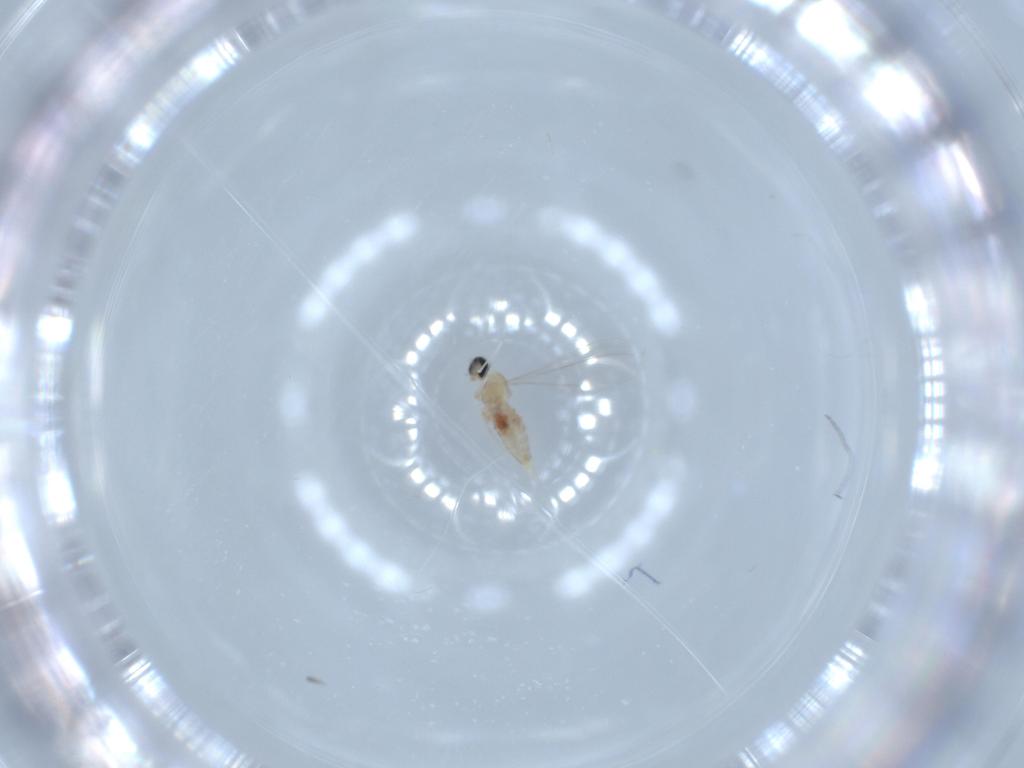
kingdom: Animalia
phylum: Arthropoda
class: Insecta
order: Diptera
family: Cecidomyiidae
